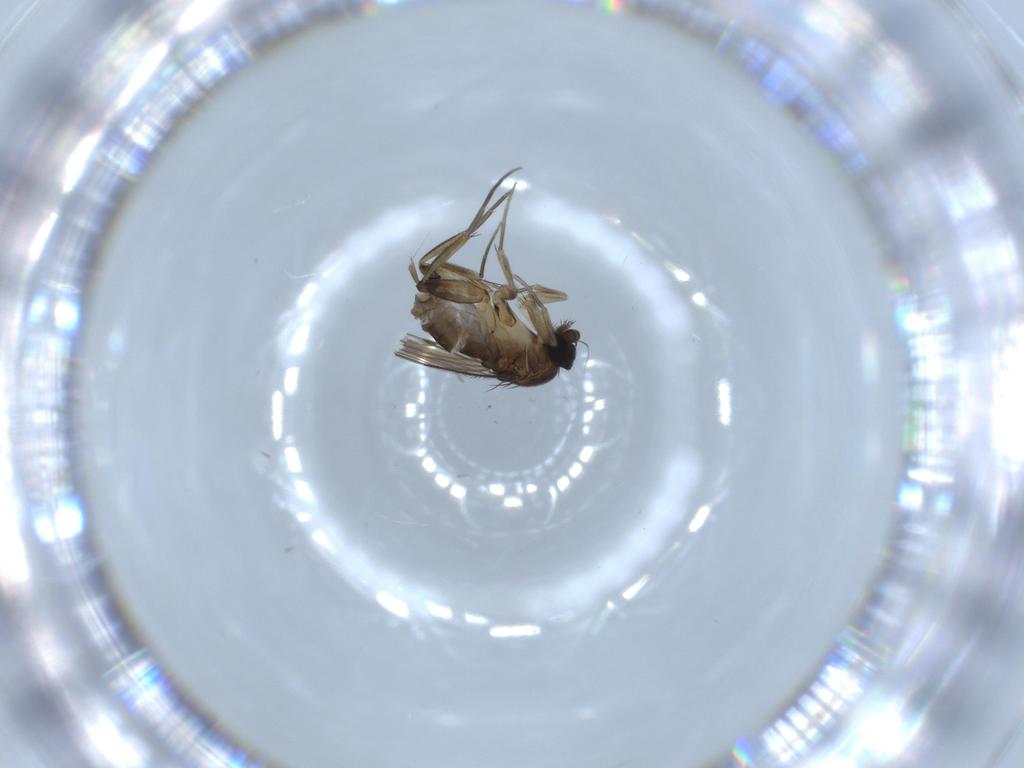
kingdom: Animalia
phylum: Arthropoda
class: Insecta
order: Diptera
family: Phoridae
